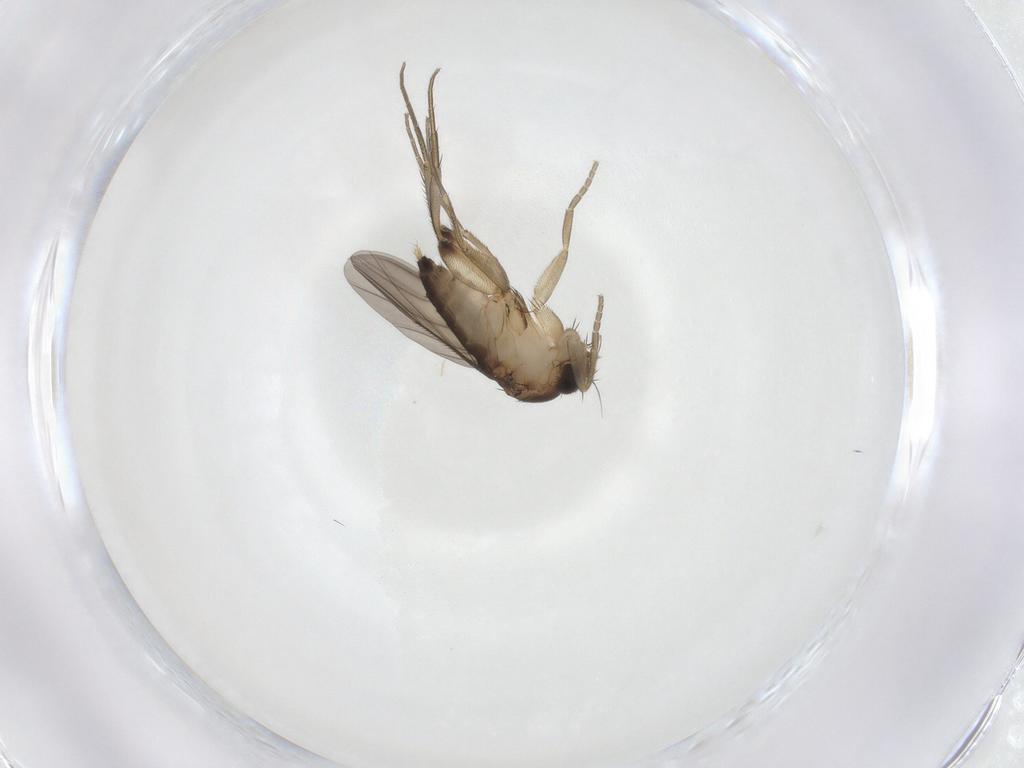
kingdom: Animalia
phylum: Arthropoda
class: Insecta
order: Diptera
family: Phoridae
